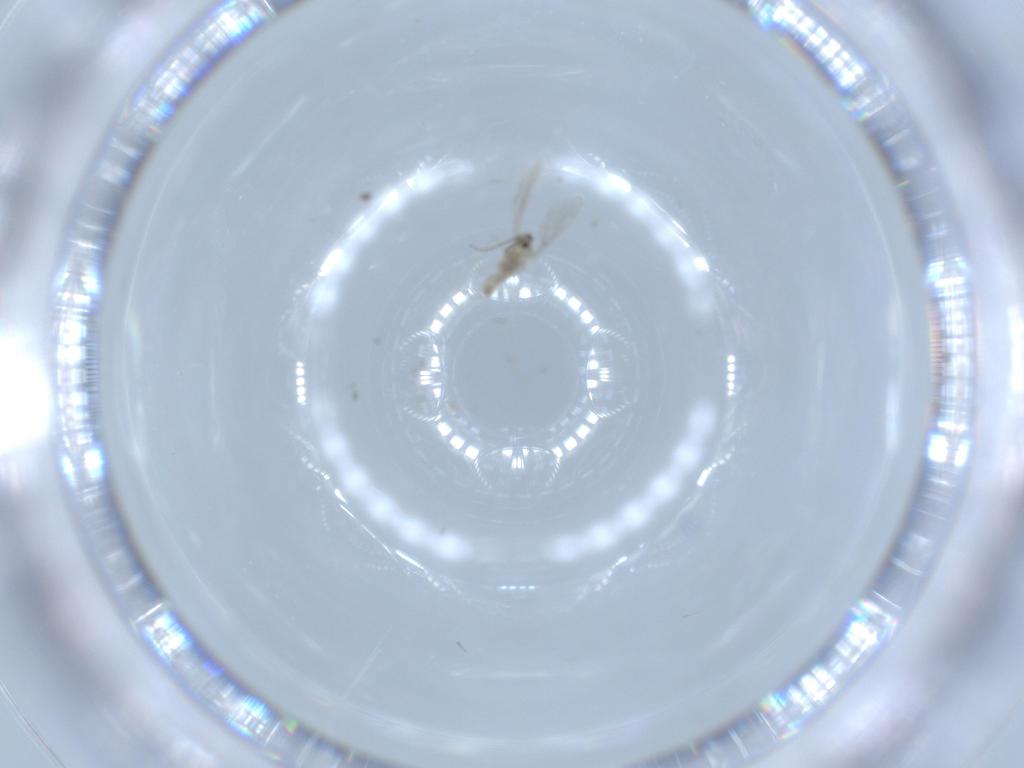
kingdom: Animalia
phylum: Arthropoda
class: Insecta
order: Diptera
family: Cecidomyiidae
